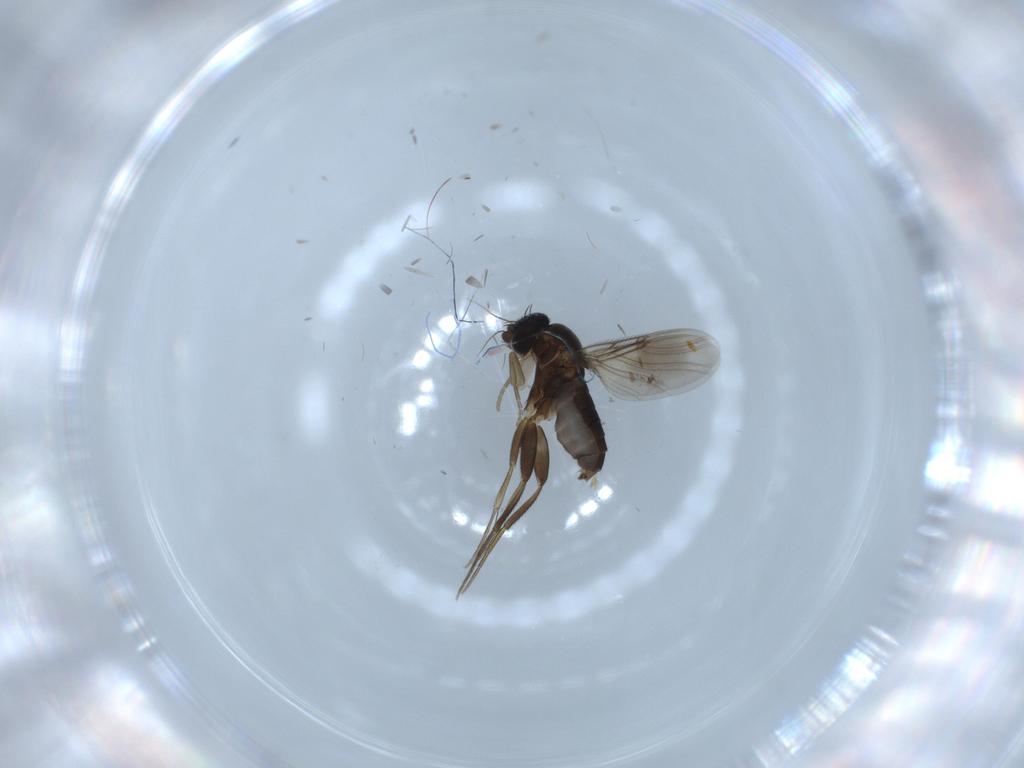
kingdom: Animalia
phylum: Arthropoda
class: Insecta
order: Diptera
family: Phoridae
